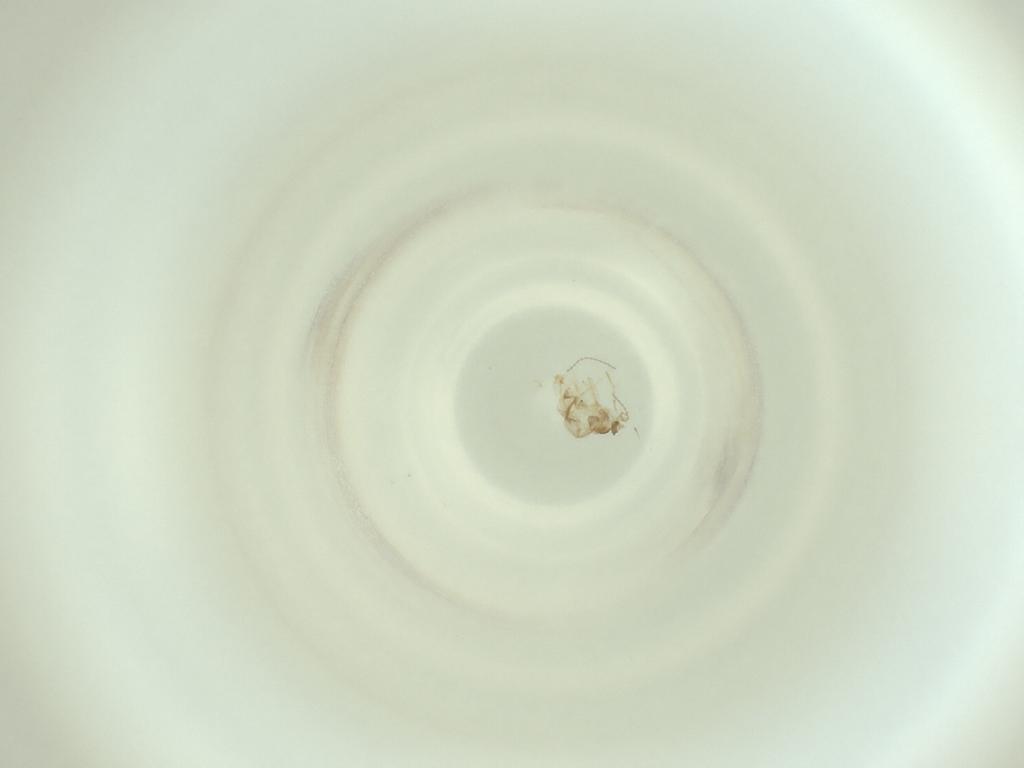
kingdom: Animalia
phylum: Arthropoda
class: Insecta
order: Diptera
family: Cecidomyiidae
